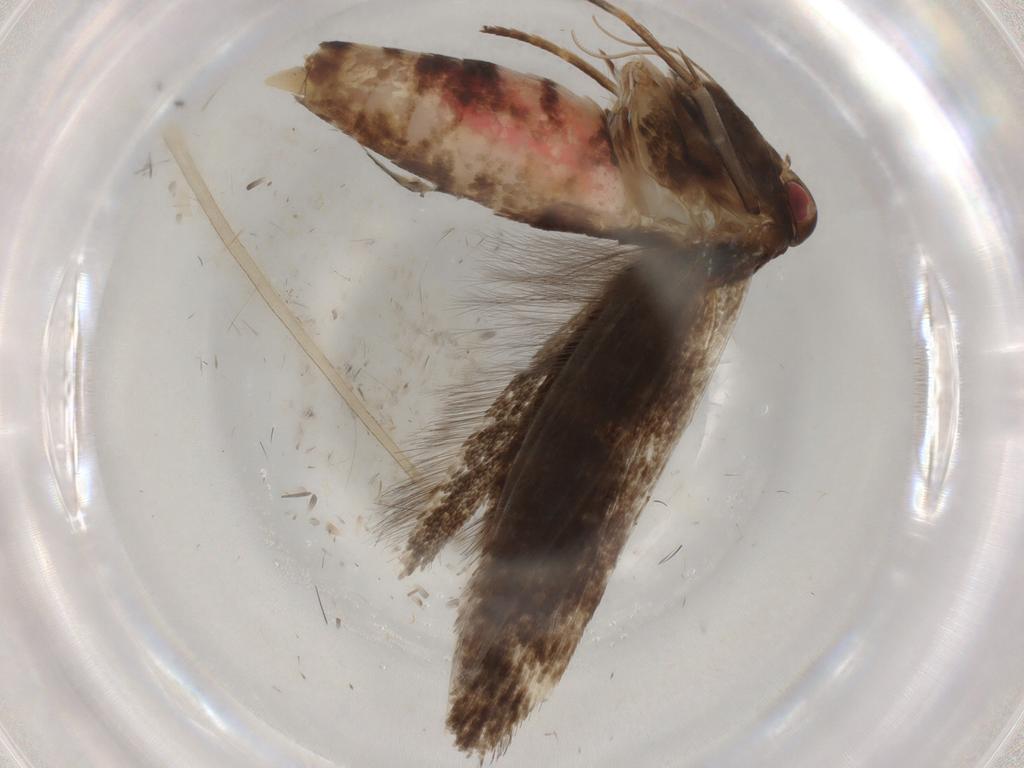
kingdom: Animalia
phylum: Arthropoda
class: Insecta
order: Lepidoptera
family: Cosmopterigidae
